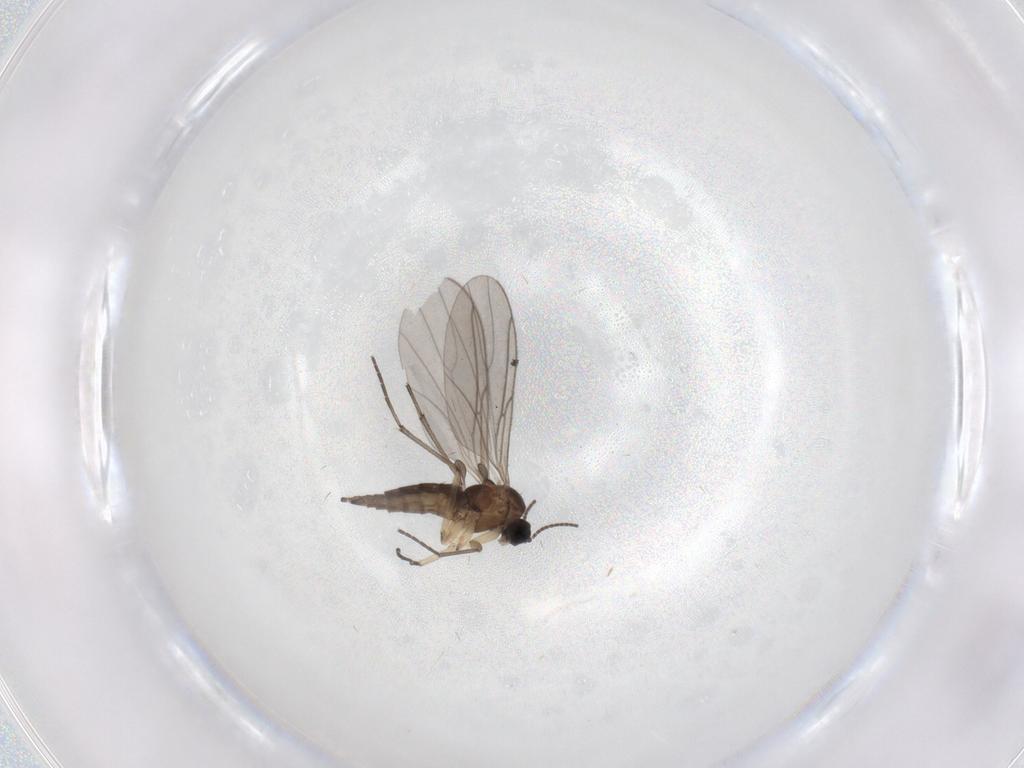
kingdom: Animalia
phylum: Arthropoda
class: Insecta
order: Diptera
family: Sciaridae
